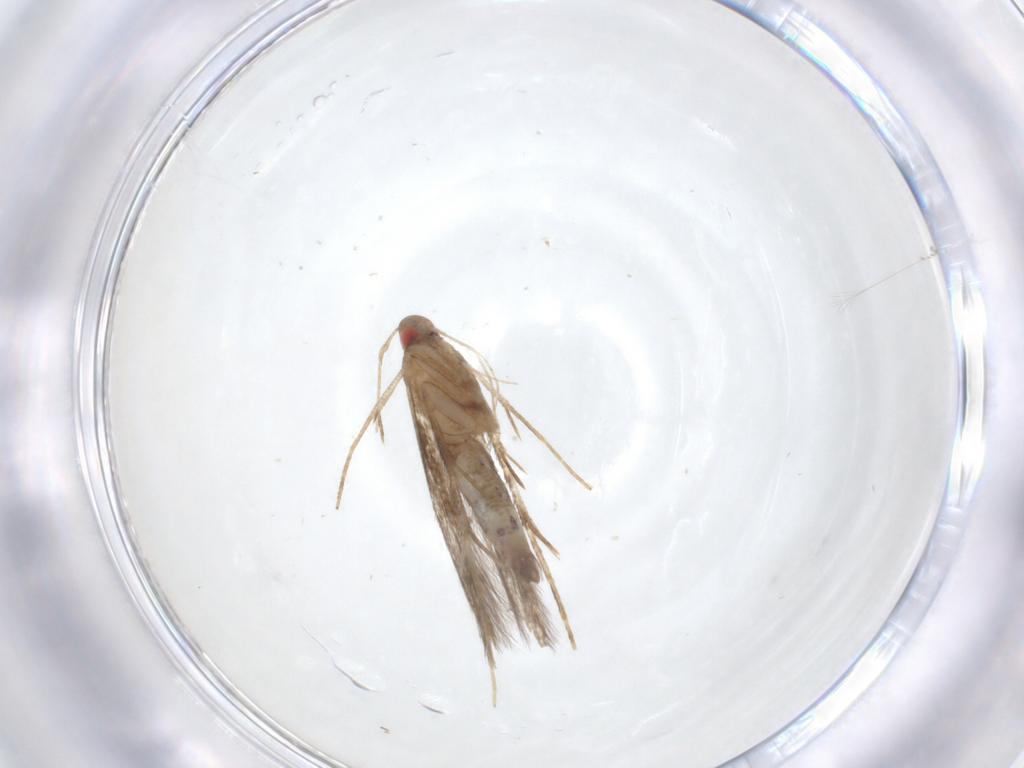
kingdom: Animalia
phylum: Arthropoda
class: Insecta
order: Lepidoptera
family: Cosmopterigidae
